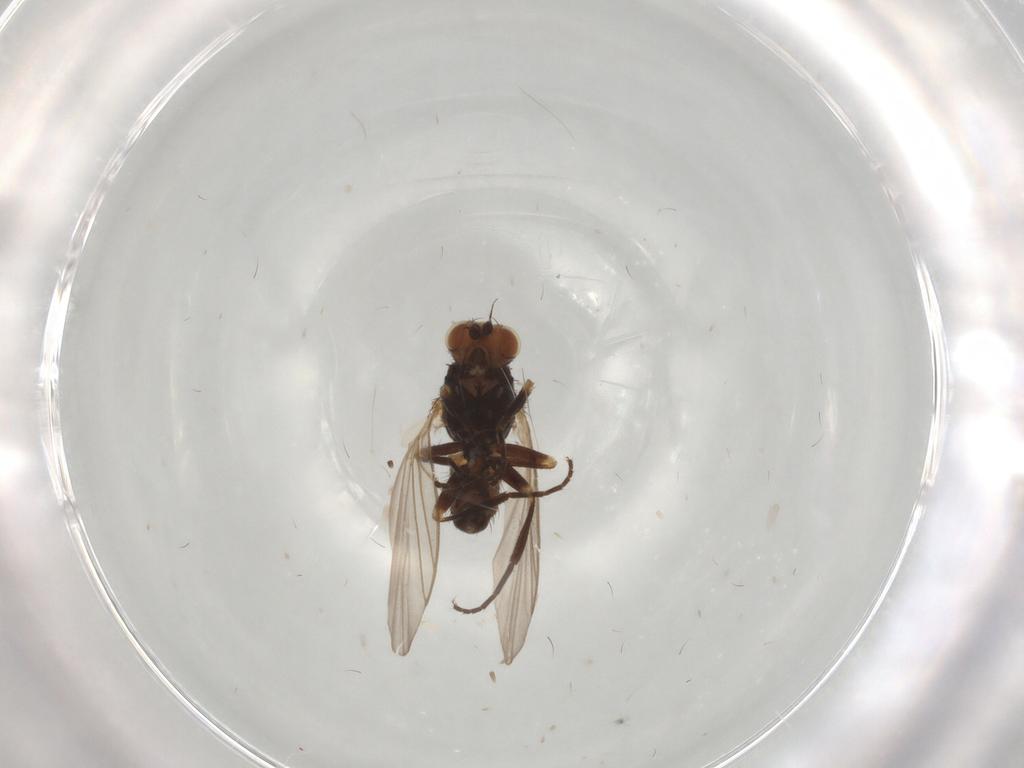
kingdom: Animalia
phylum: Arthropoda
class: Insecta
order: Diptera
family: Agromyzidae
